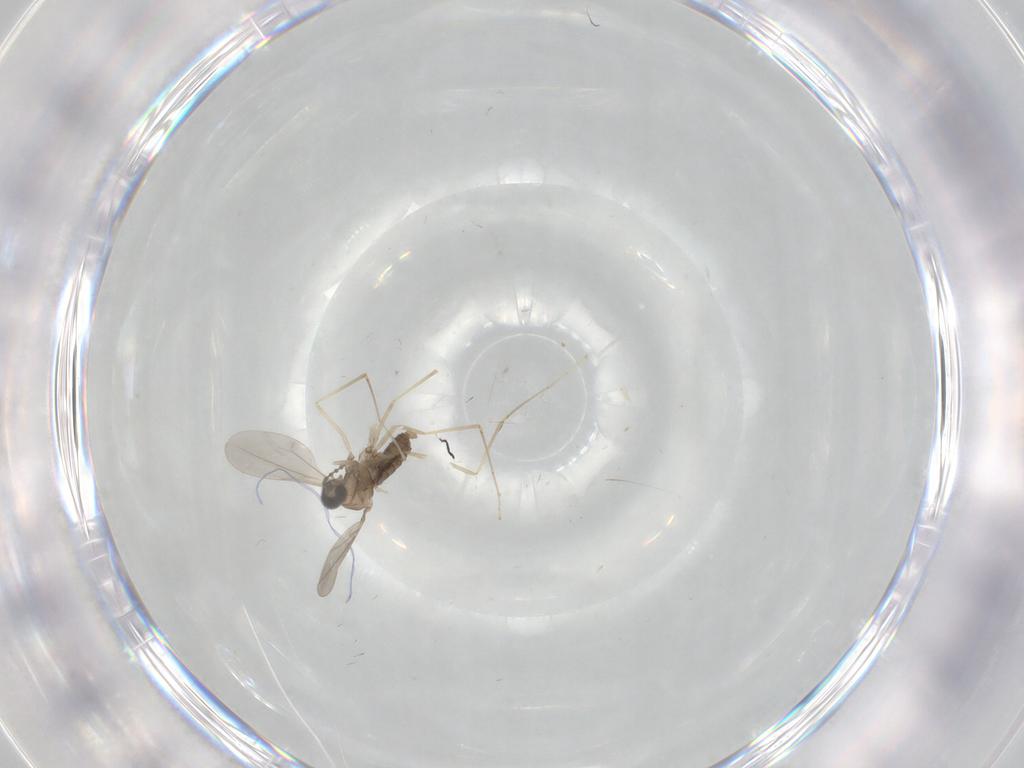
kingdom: Animalia
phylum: Arthropoda
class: Insecta
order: Diptera
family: Cecidomyiidae
